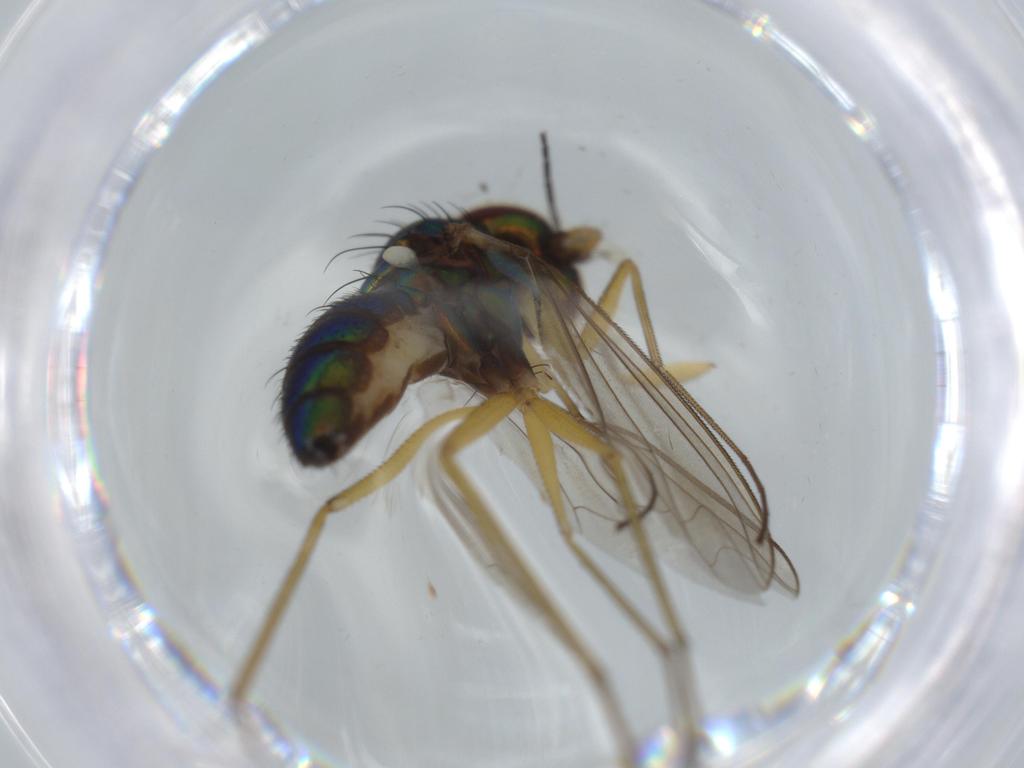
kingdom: Animalia
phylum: Arthropoda
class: Insecta
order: Diptera
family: Dolichopodidae
